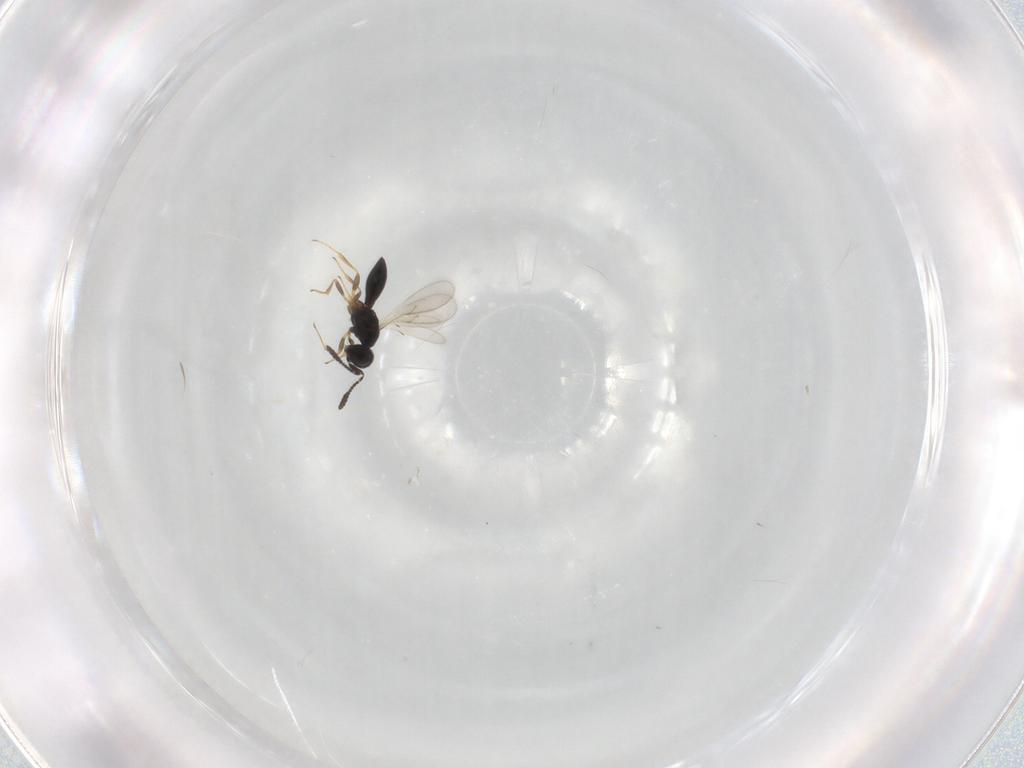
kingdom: Animalia
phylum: Arthropoda
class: Insecta
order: Hymenoptera
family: Scelionidae
